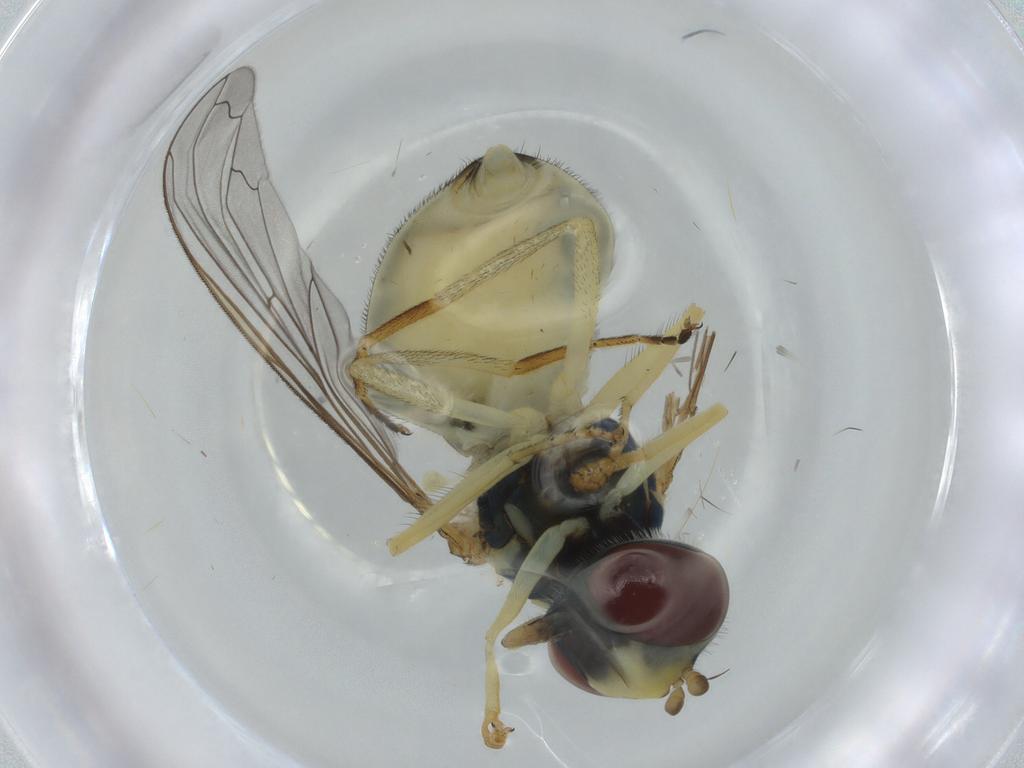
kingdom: Animalia
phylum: Arthropoda
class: Insecta
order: Diptera
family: Syrphidae
